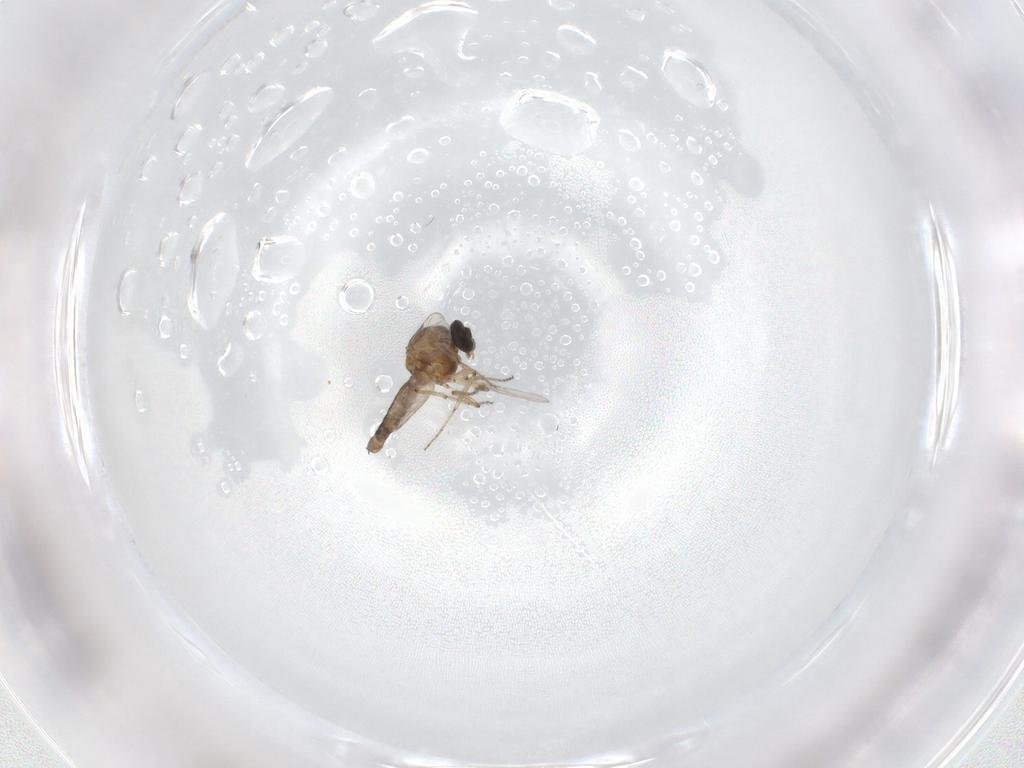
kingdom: Animalia
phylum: Arthropoda
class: Insecta
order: Diptera
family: Ceratopogonidae
